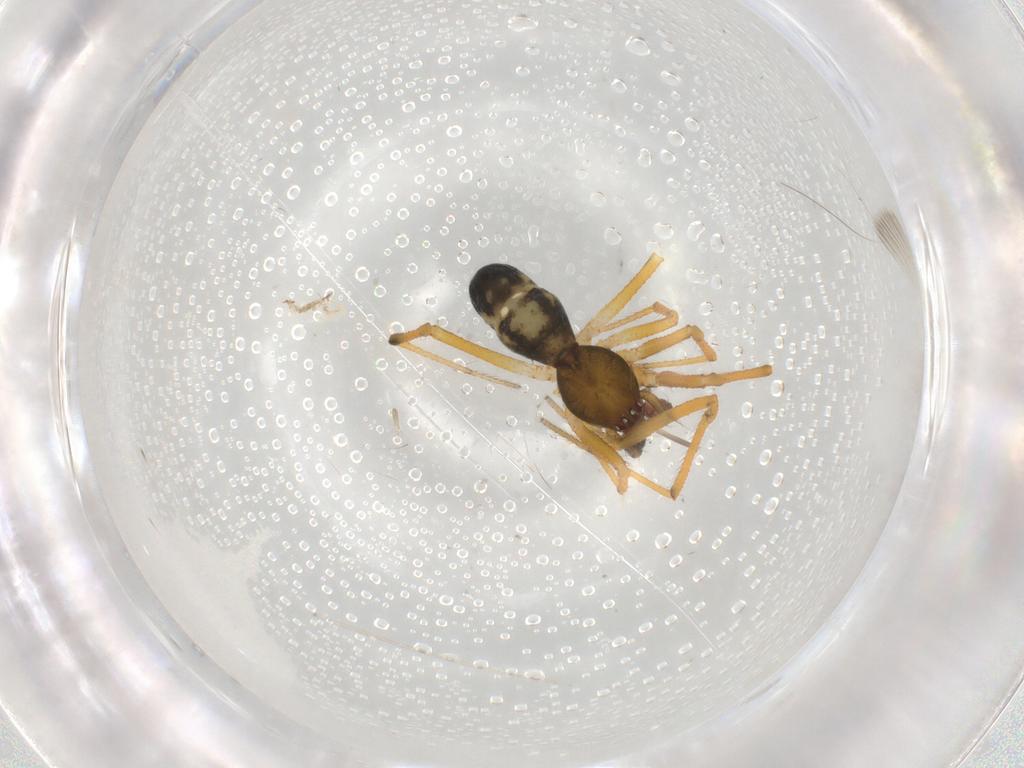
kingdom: Animalia
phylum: Arthropoda
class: Arachnida
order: Araneae
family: Theridiidae
